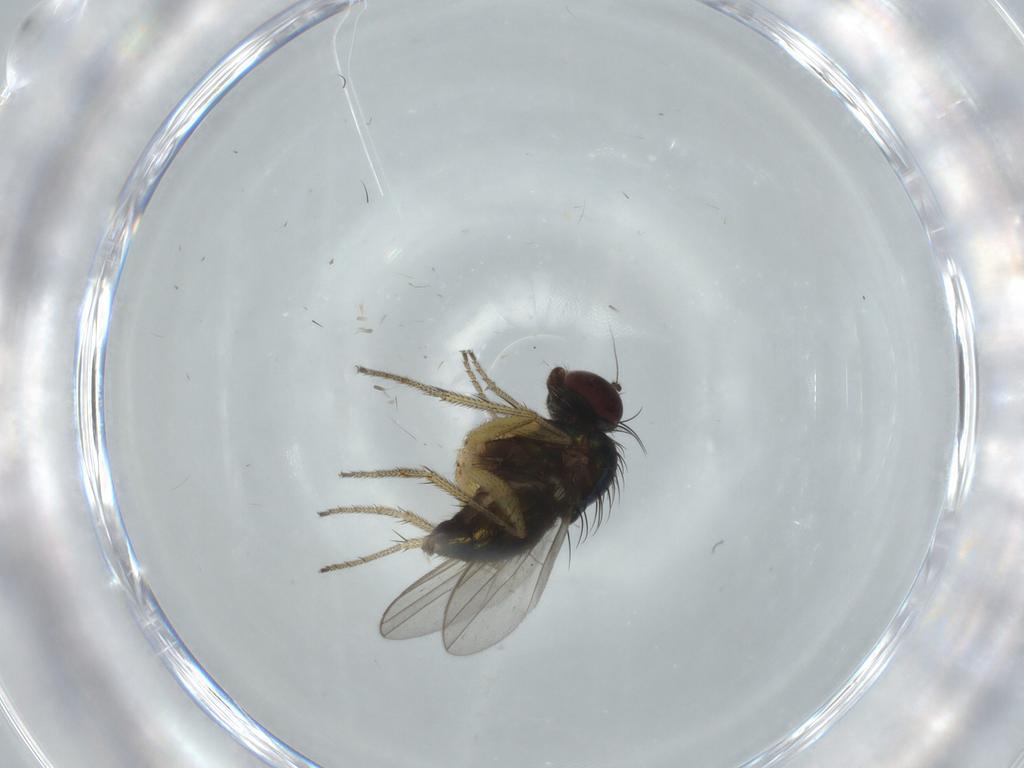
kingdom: Animalia
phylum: Arthropoda
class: Insecta
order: Diptera
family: Dolichopodidae
